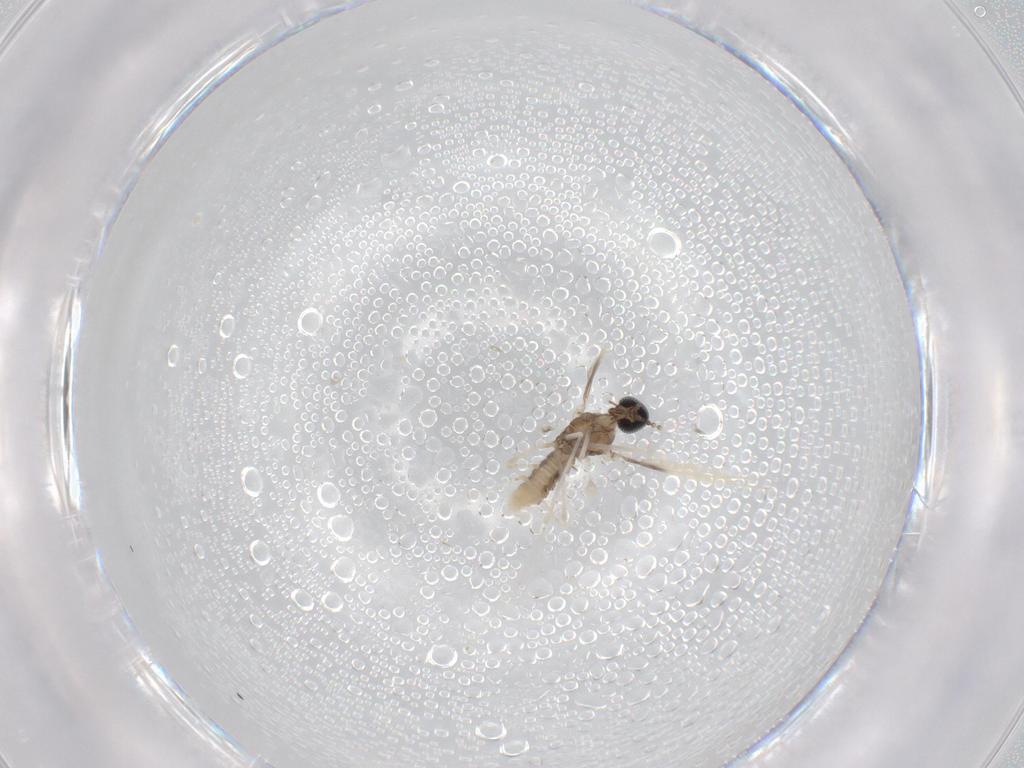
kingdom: Animalia
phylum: Arthropoda
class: Insecta
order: Diptera
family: Cecidomyiidae
